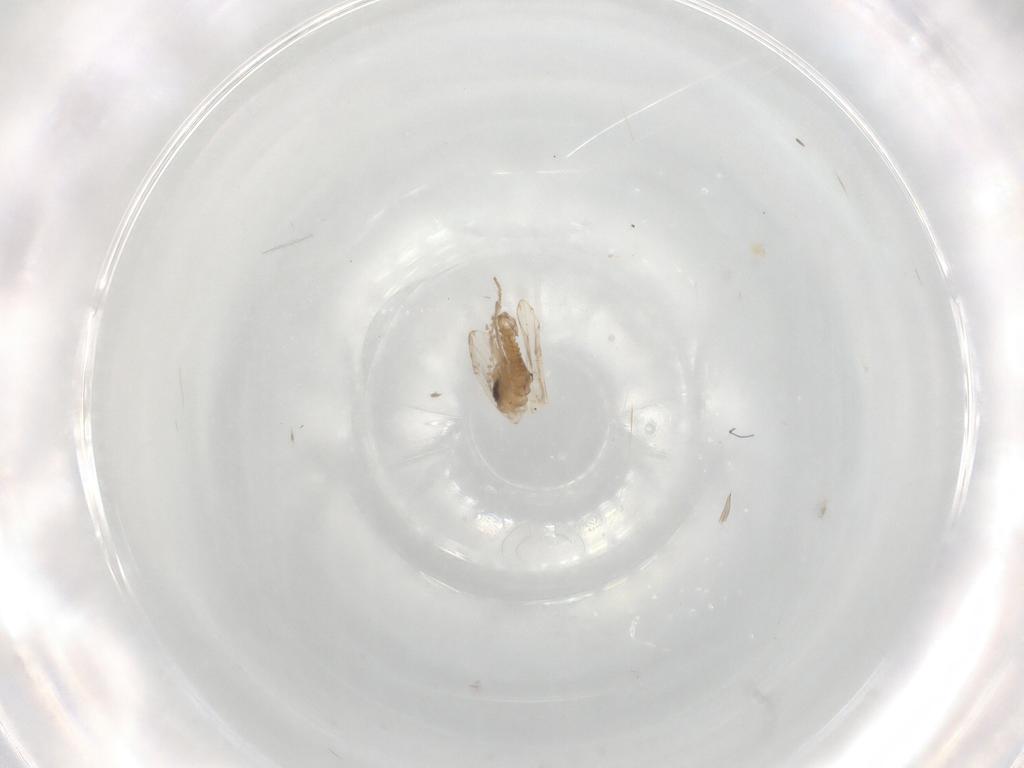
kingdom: Animalia
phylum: Arthropoda
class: Insecta
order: Diptera
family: Psychodidae
